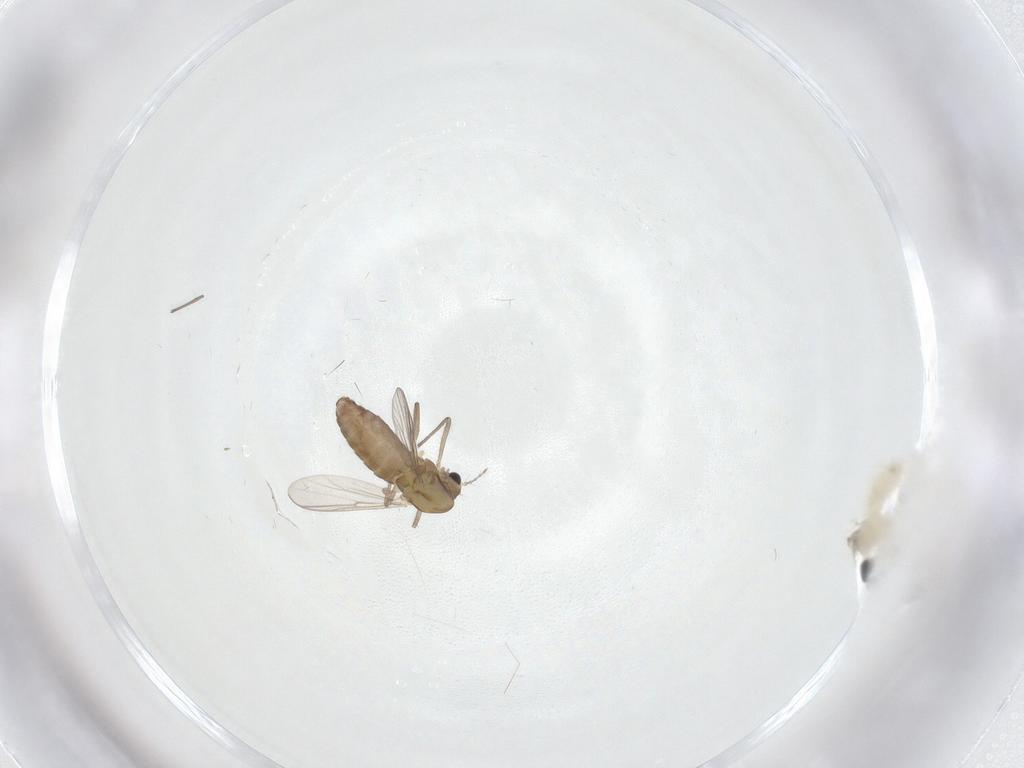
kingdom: Animalia
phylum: Arthropoda
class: Insecta
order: Diptera
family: Chironomidae
